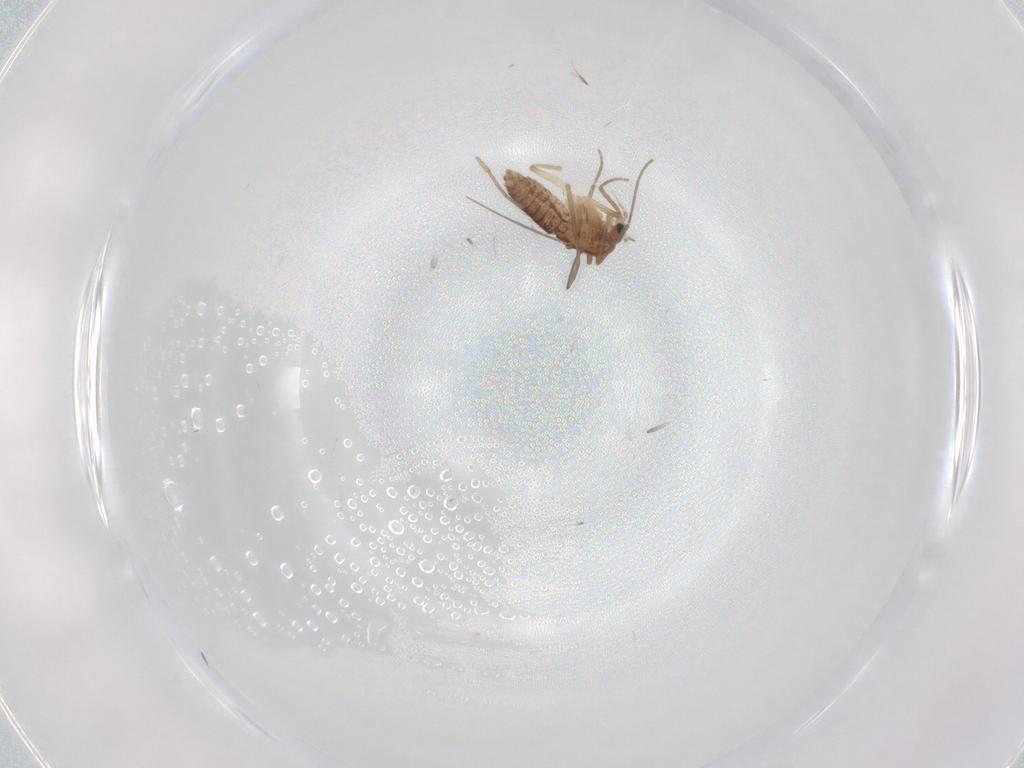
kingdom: Animalia
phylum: Arthropoda
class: Insecta
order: Diptera
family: Chironomidae
